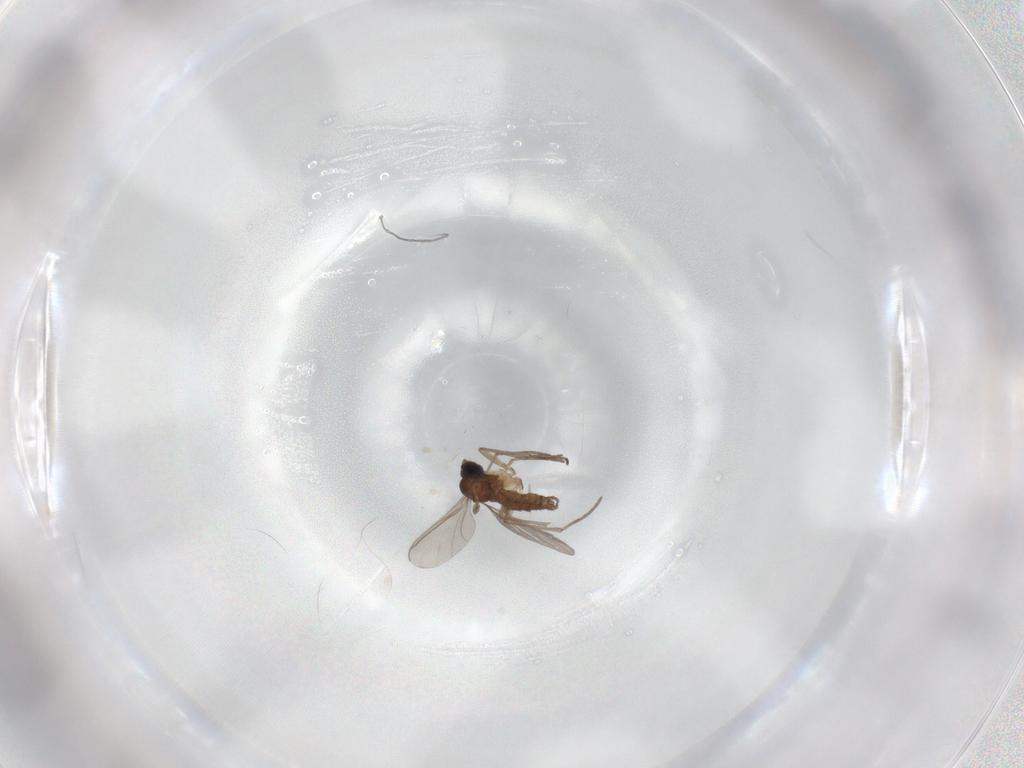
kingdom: Animalia
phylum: Arthropoda
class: Insecta
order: Diptera
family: Sciaridae
